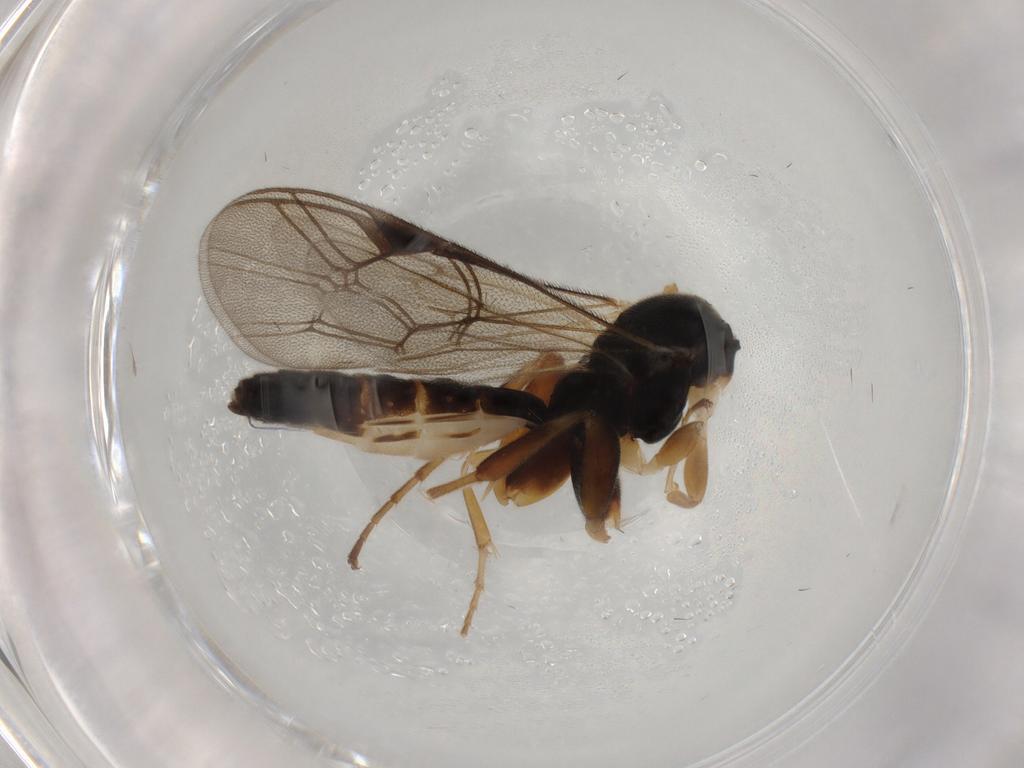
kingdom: Animalia
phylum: Arthropoda
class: Insecta
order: Hymenoptera
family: Ichneumonidae
